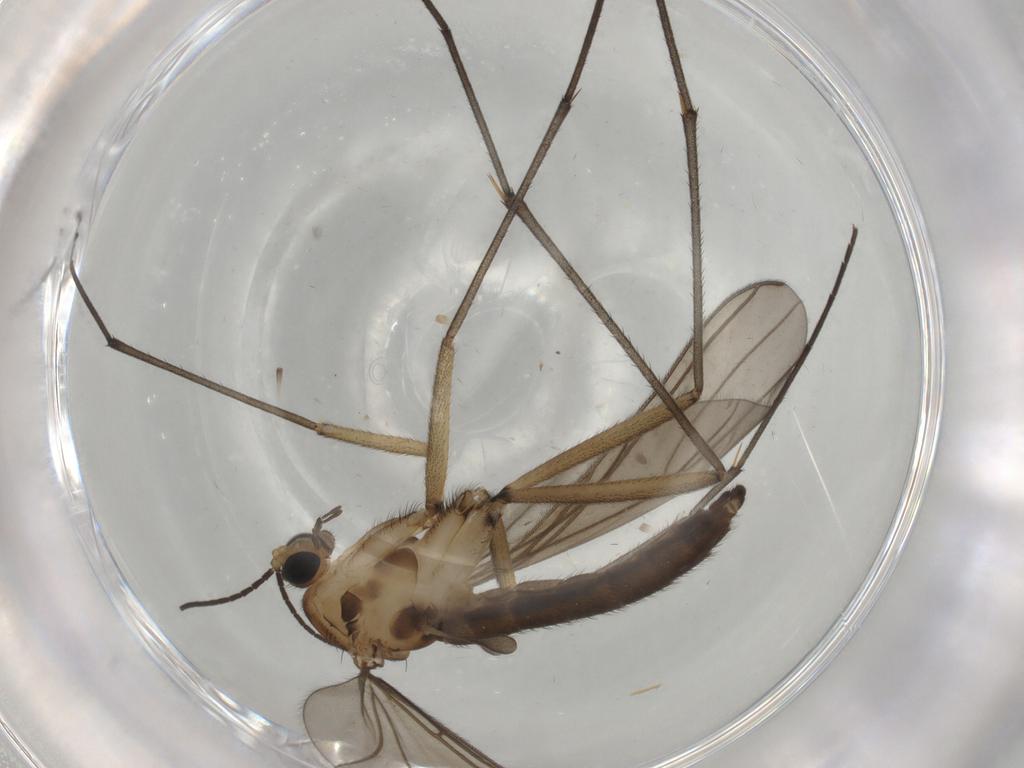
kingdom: Animalia
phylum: Arthropoda
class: Insecta
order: Diptera
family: Sciaridae
